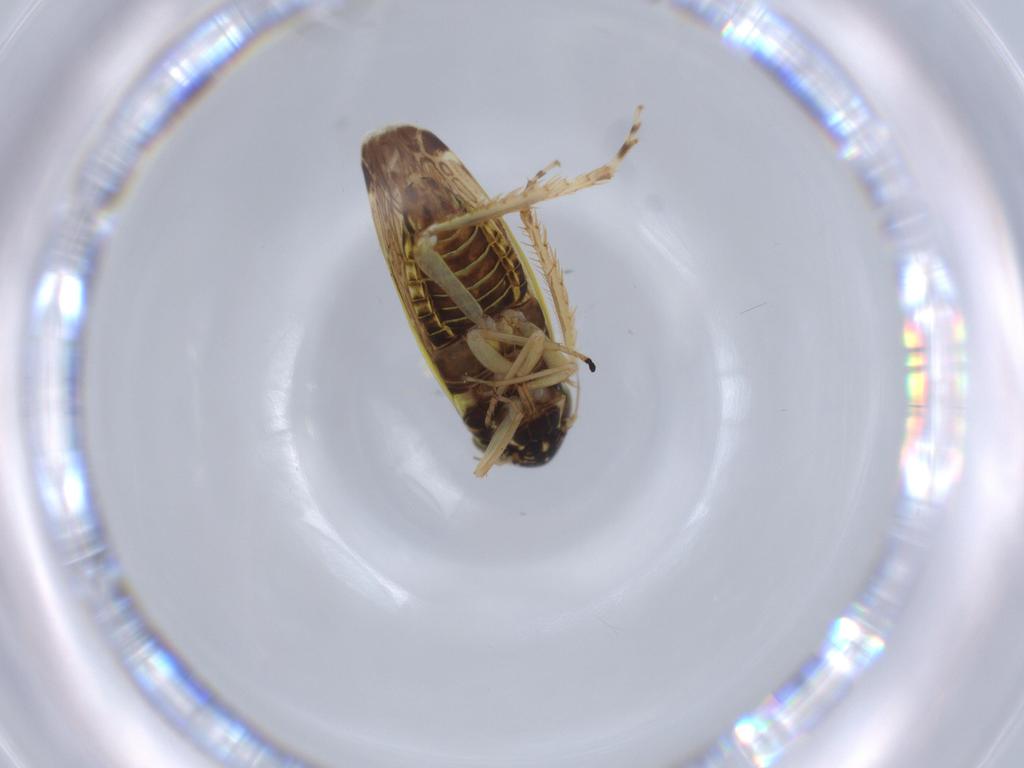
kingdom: Animalia
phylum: Arthropoda
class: Insecta
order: Hemiptera
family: Cicadellidae
